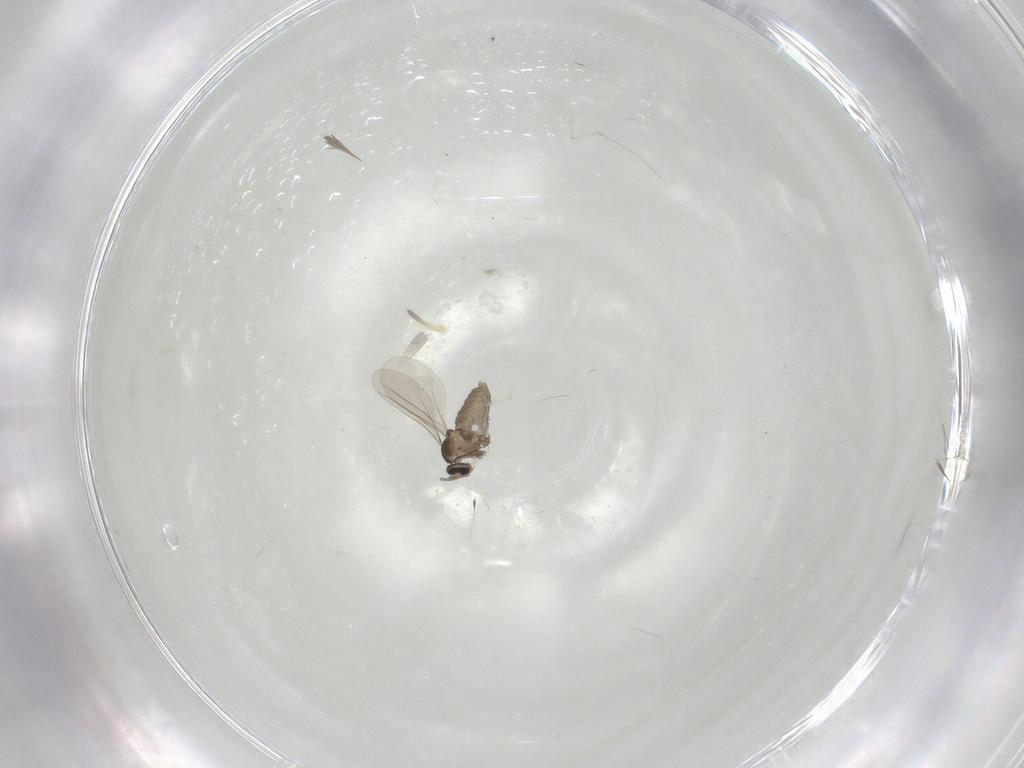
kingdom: Animalia
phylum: Arthropoda
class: Insecta
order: Diptera
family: Cecidomyiidae
